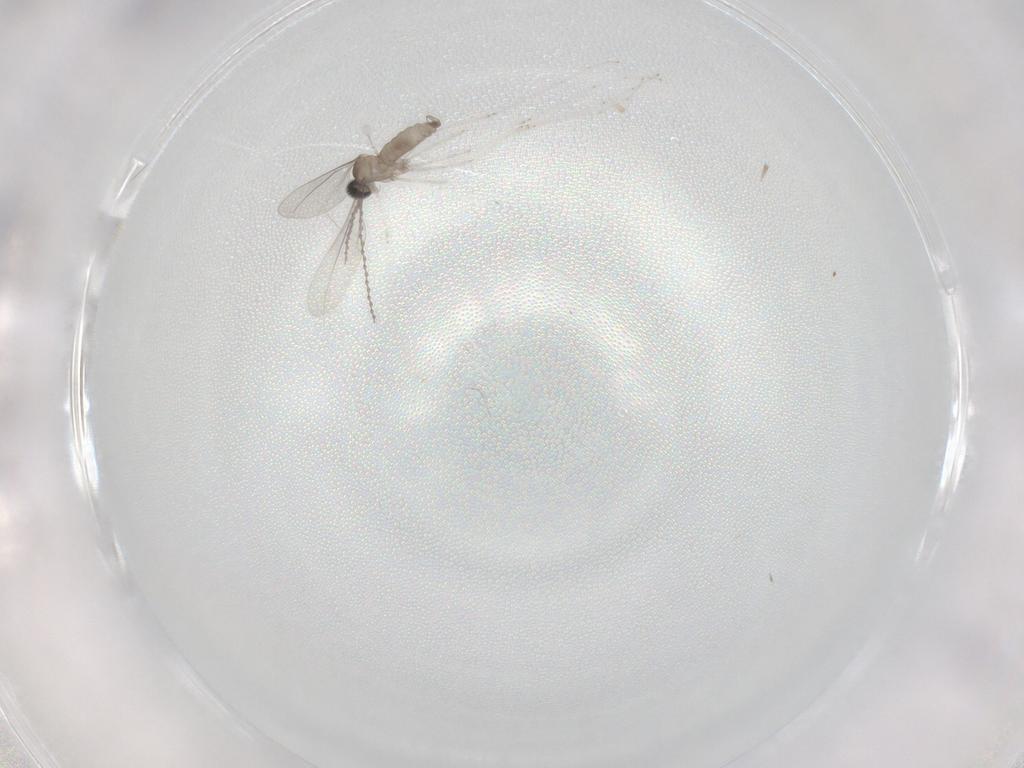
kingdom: Animalia
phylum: Arthropoda
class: Insecta
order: Diptera
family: Cecidomyiidae
